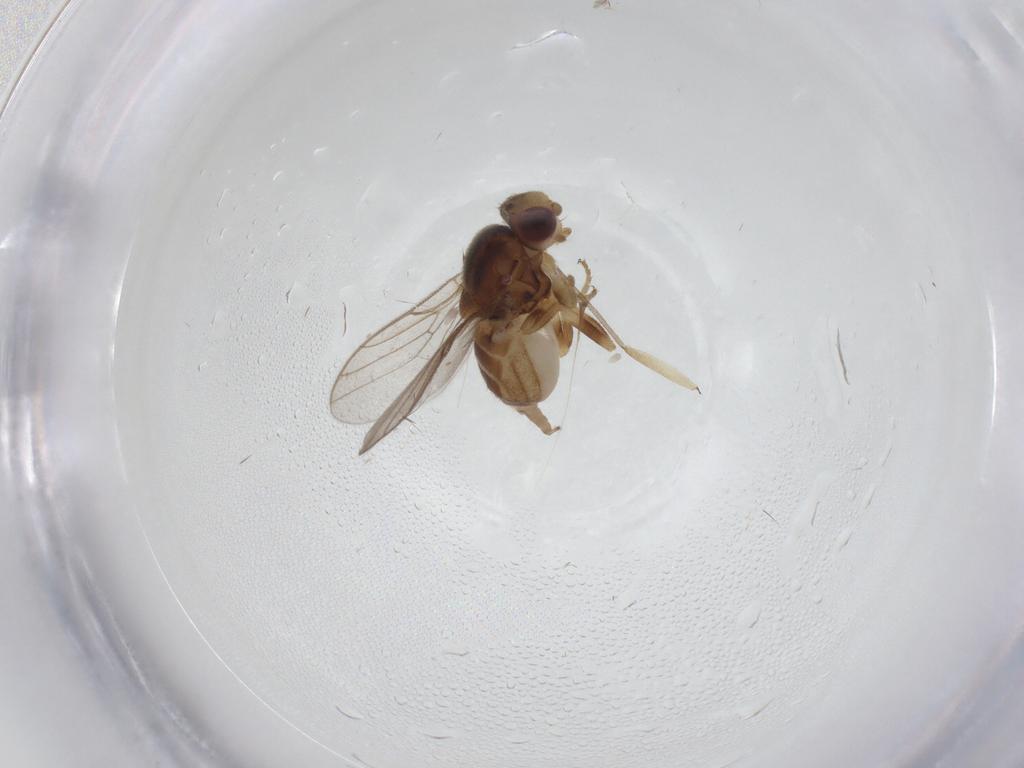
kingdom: Animalia
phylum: Arthropoda
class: Insecta
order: Diptera
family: Chloropidae
